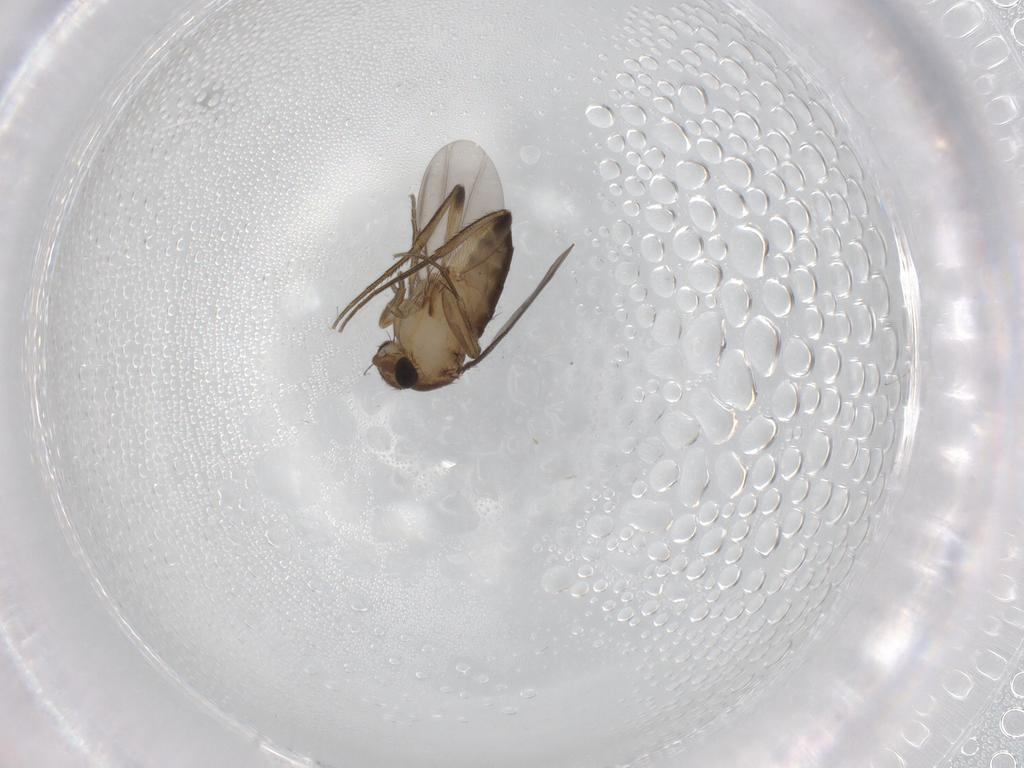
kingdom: Animalia
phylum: Arthropoda
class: Insecta
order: Diptera
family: Phoridae
